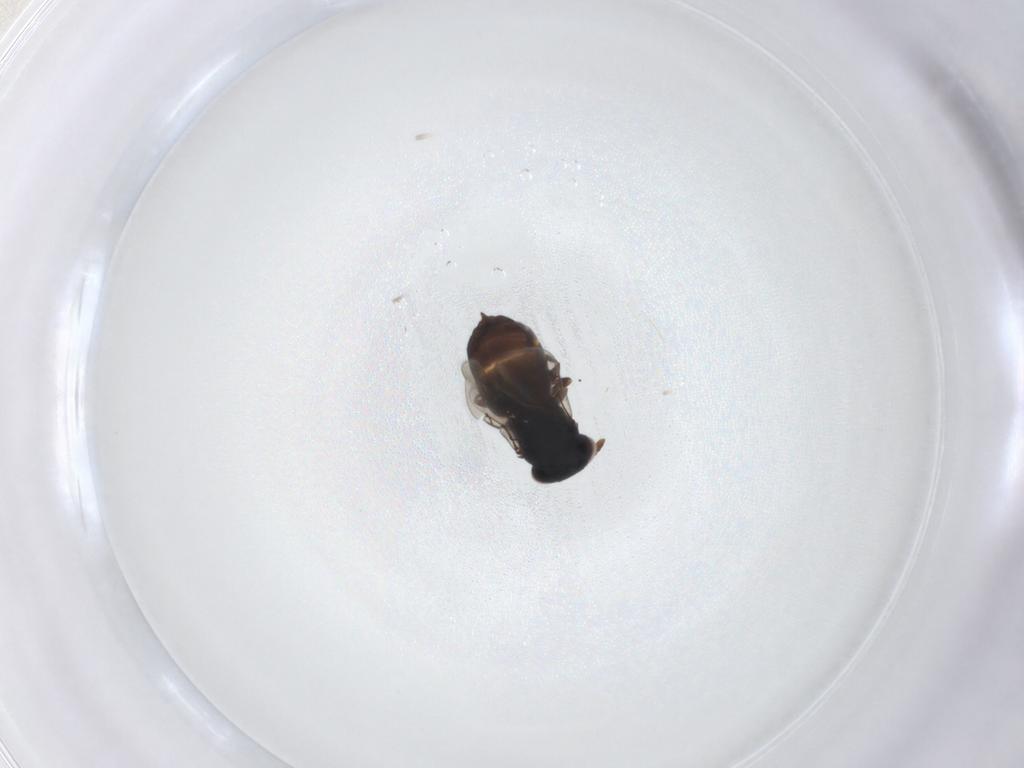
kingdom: Animalia
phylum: Arthropoda
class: Insecta
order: Hymenoptera
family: Eunotidae
